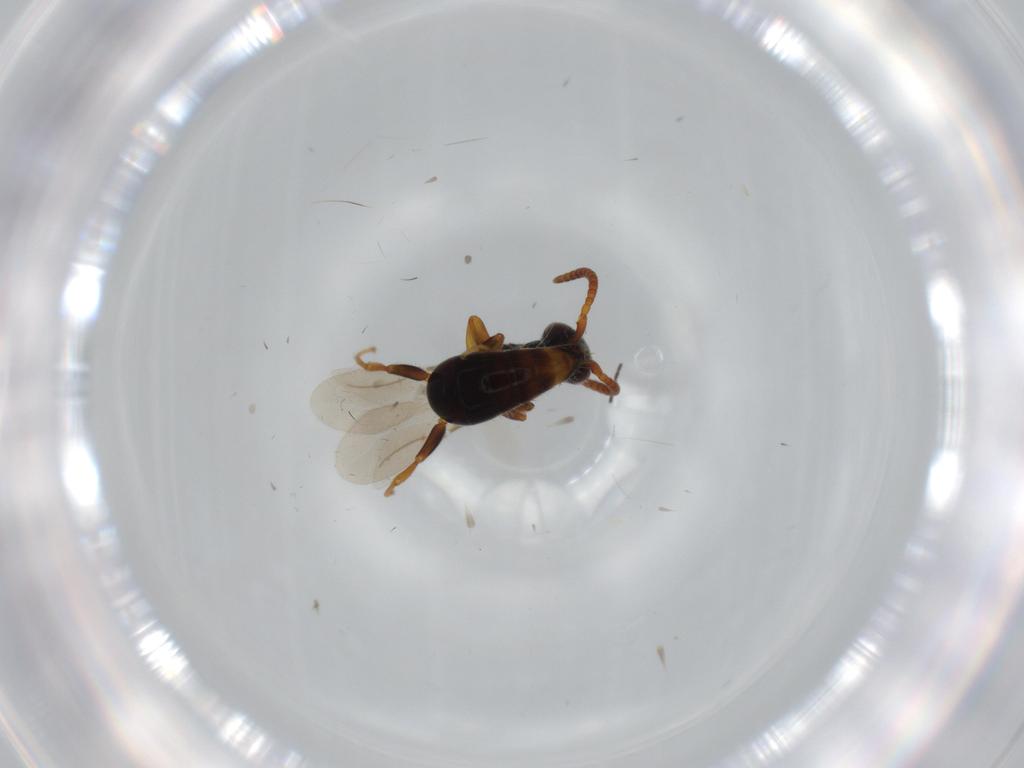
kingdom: Animalia
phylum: Arthropoda
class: Insecta
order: Hymenoptera
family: Bethylidae
